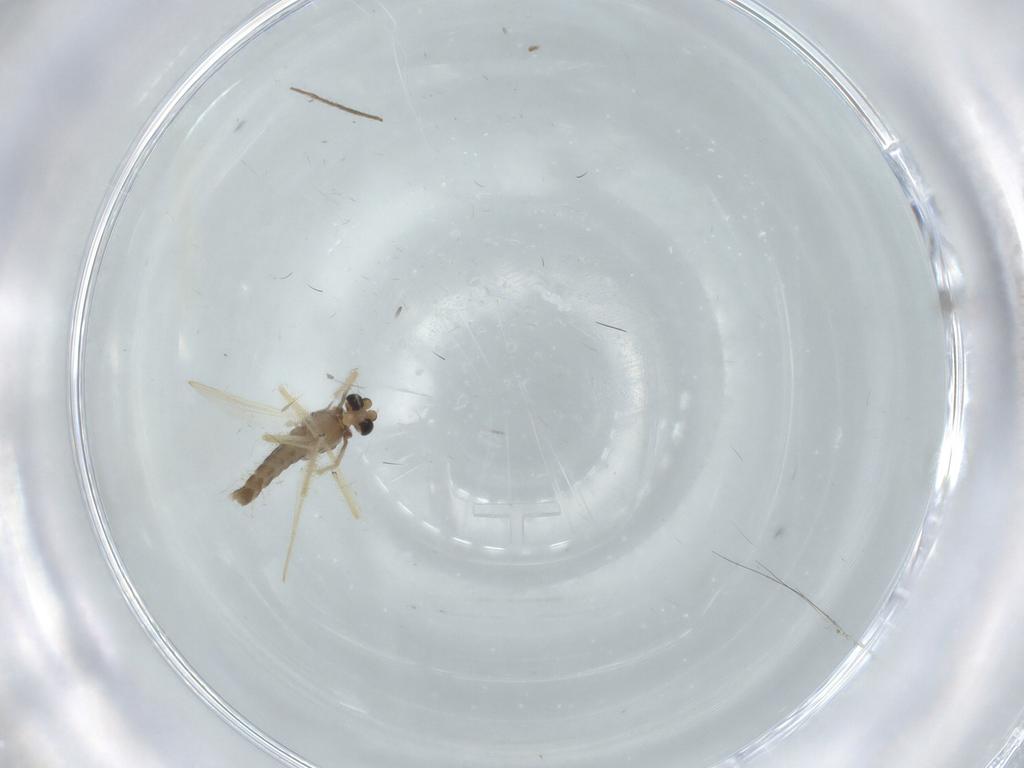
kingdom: Animalia
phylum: Arthropoda
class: Insecta
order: Diptera
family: Chironomidae
